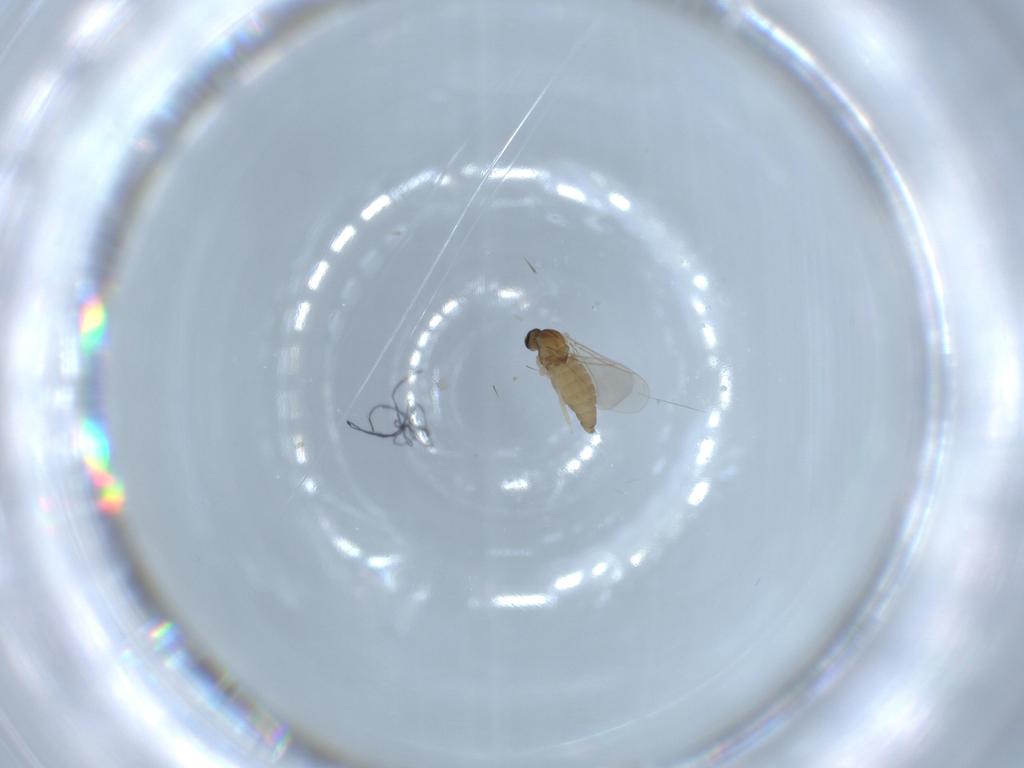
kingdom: Animalia
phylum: Arthropoda
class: Insecta
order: Diptera
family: Cecidomyiidae
